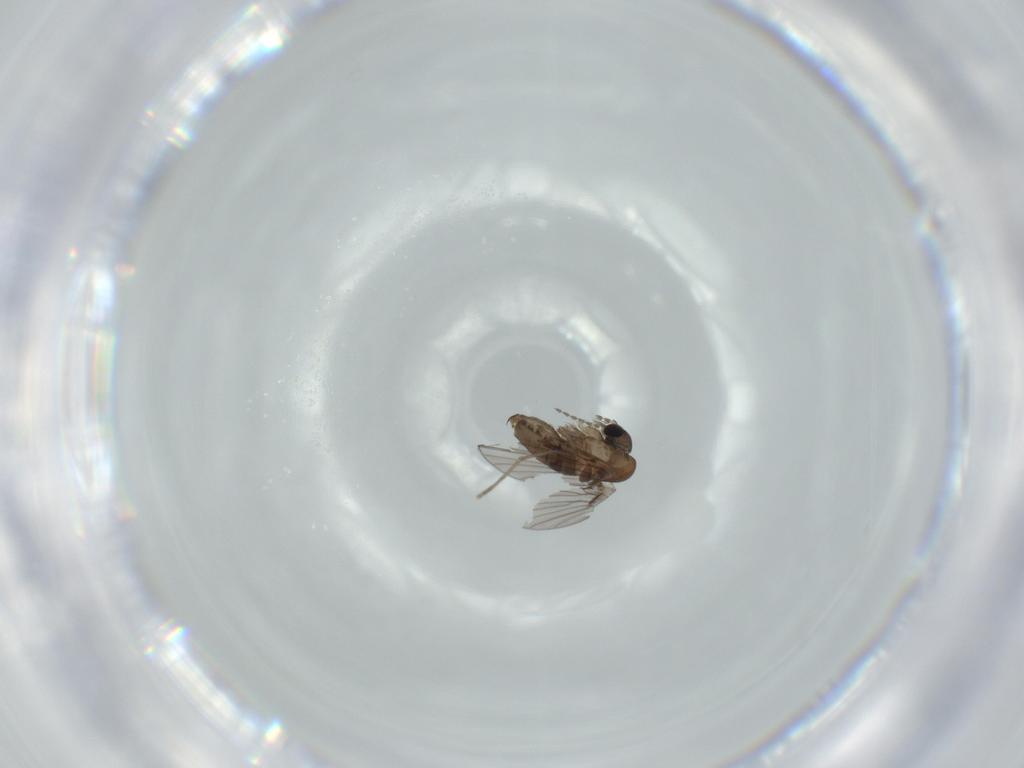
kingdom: Animalia
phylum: Arthropoda
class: Insecta
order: Diptera
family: Psychodidae
